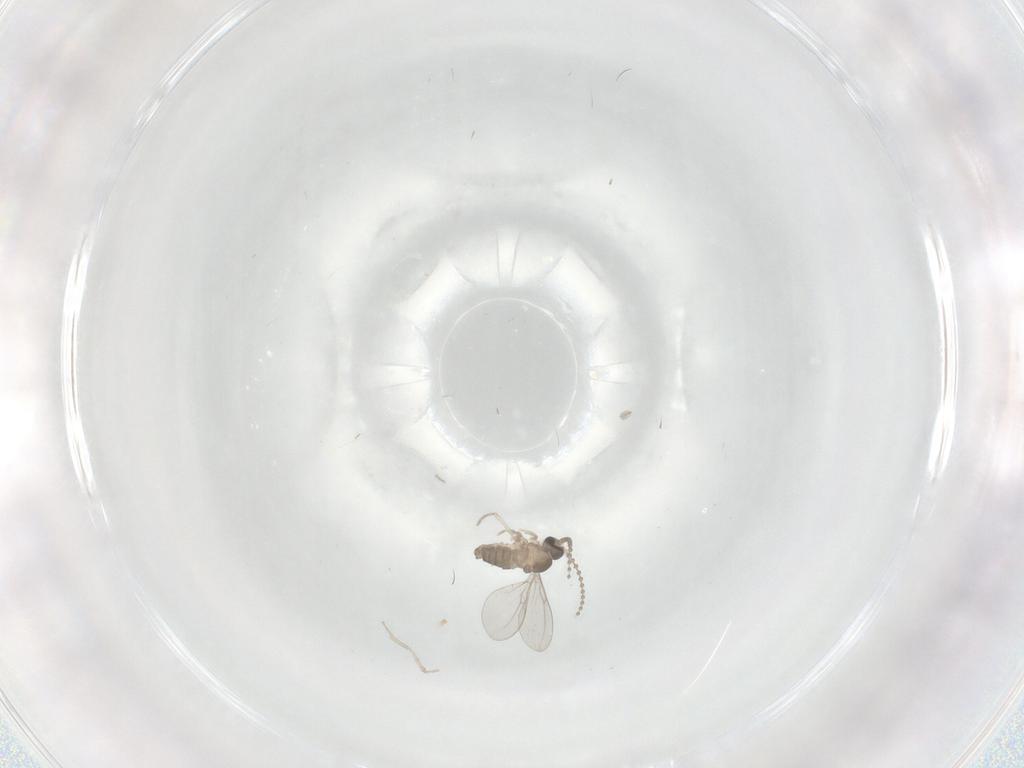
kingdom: Animalia
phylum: Arthropoda
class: Insecta
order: Diptera
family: Cecidomyiidae
